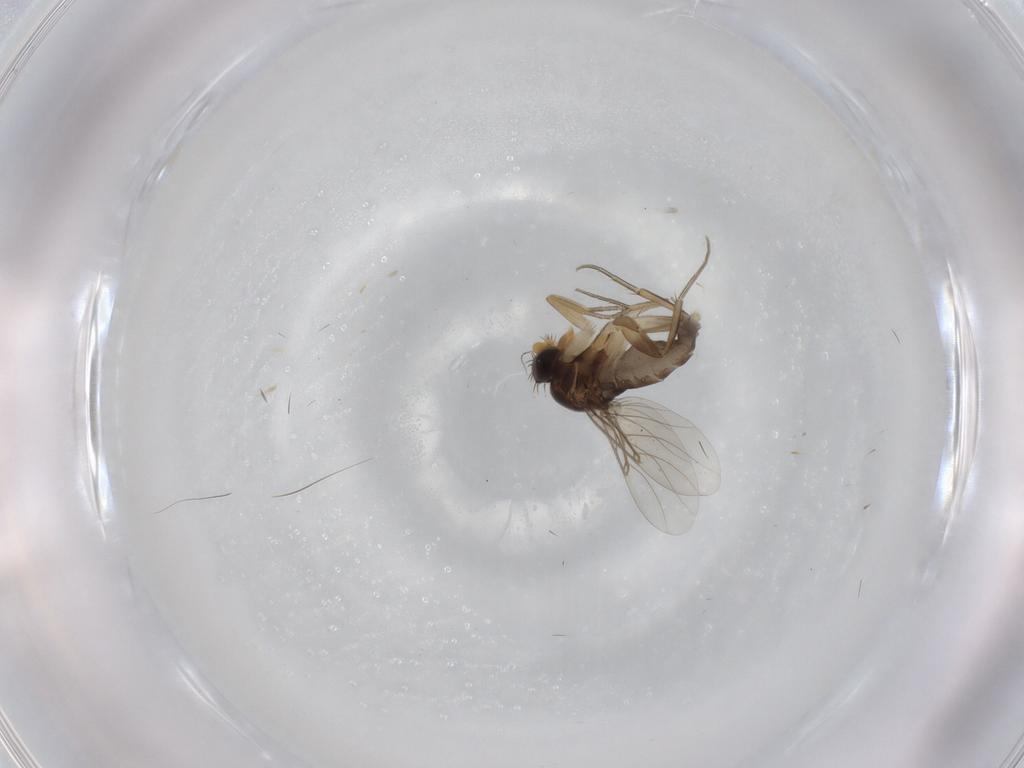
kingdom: Animalia
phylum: Arthropoda
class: Insecta
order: Diptera
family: Phoridae
